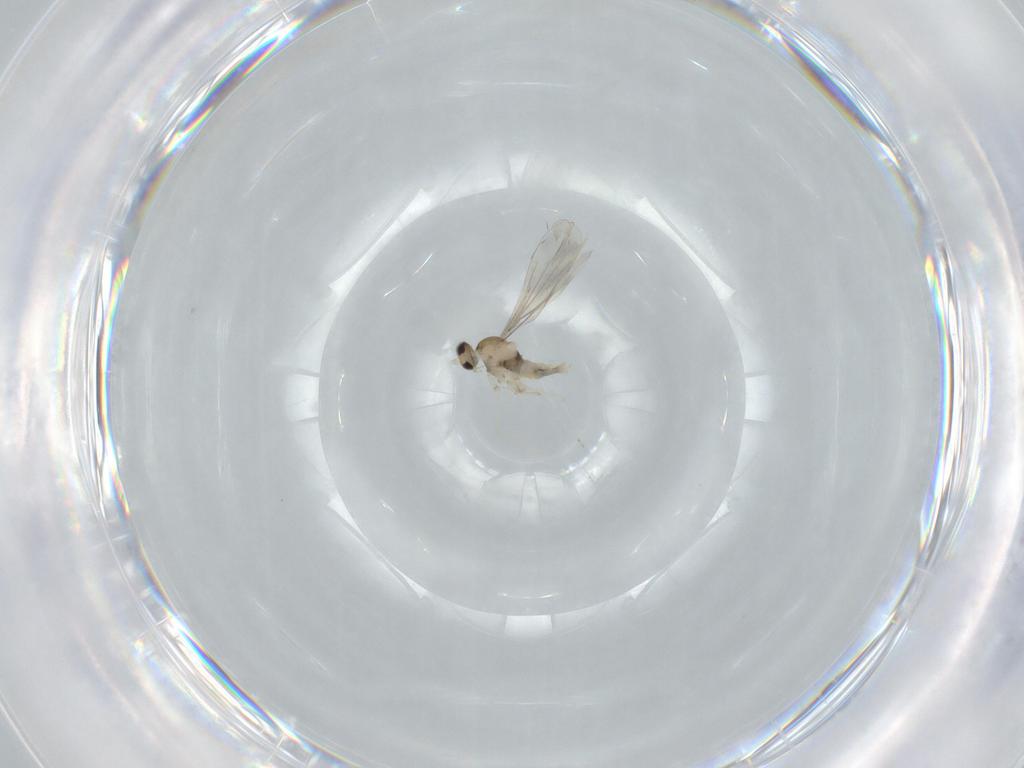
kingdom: Animalia
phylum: Arthropoda
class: Insecta
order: Diptera
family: Cecidomyiidae
